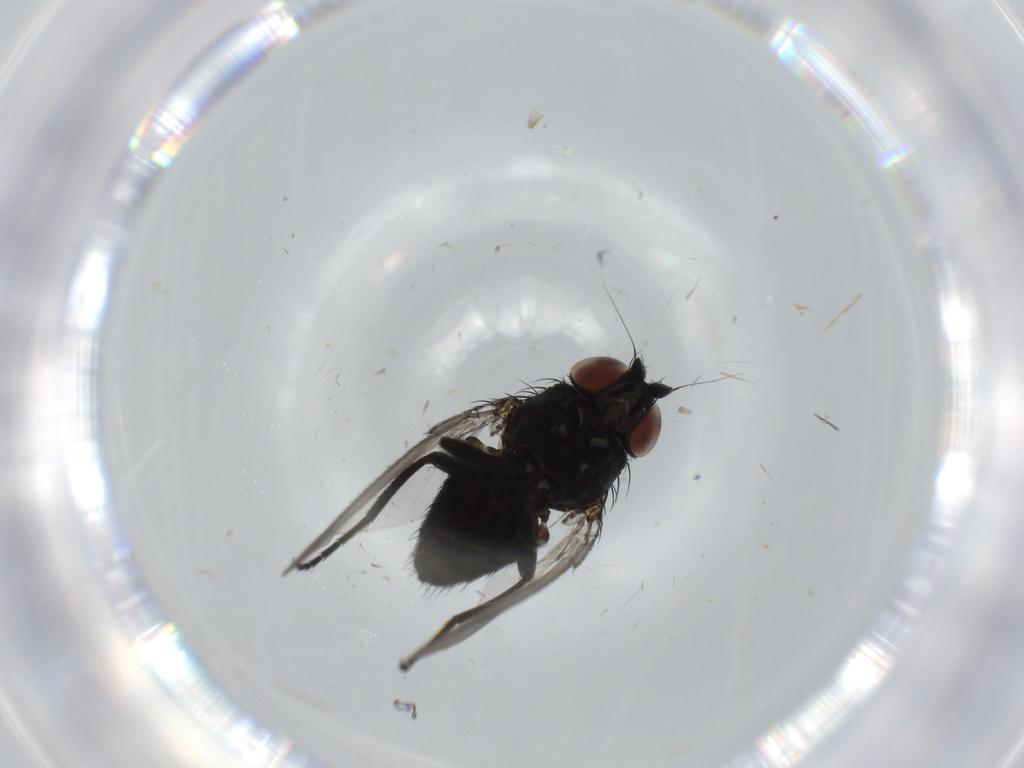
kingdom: Animalia
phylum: Arthropoda
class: Insecta
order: Diptera
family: Milichiidae
